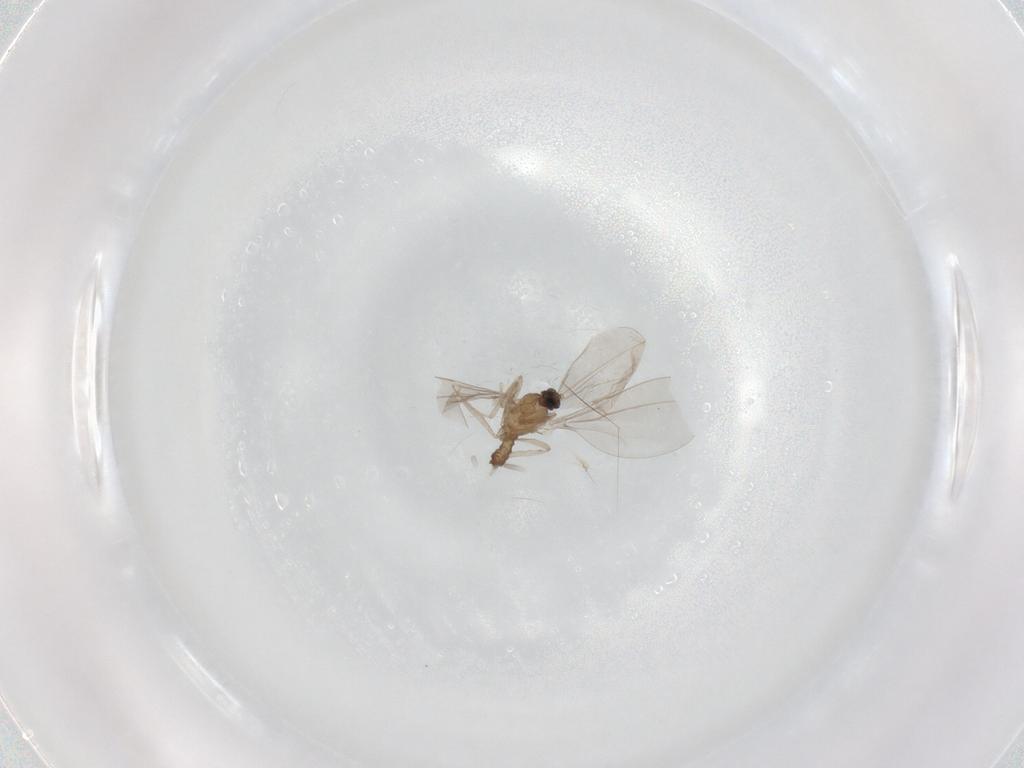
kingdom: Animalia
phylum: Arthropoda
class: Insecta
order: Diptera
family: Cecidomyiidae
